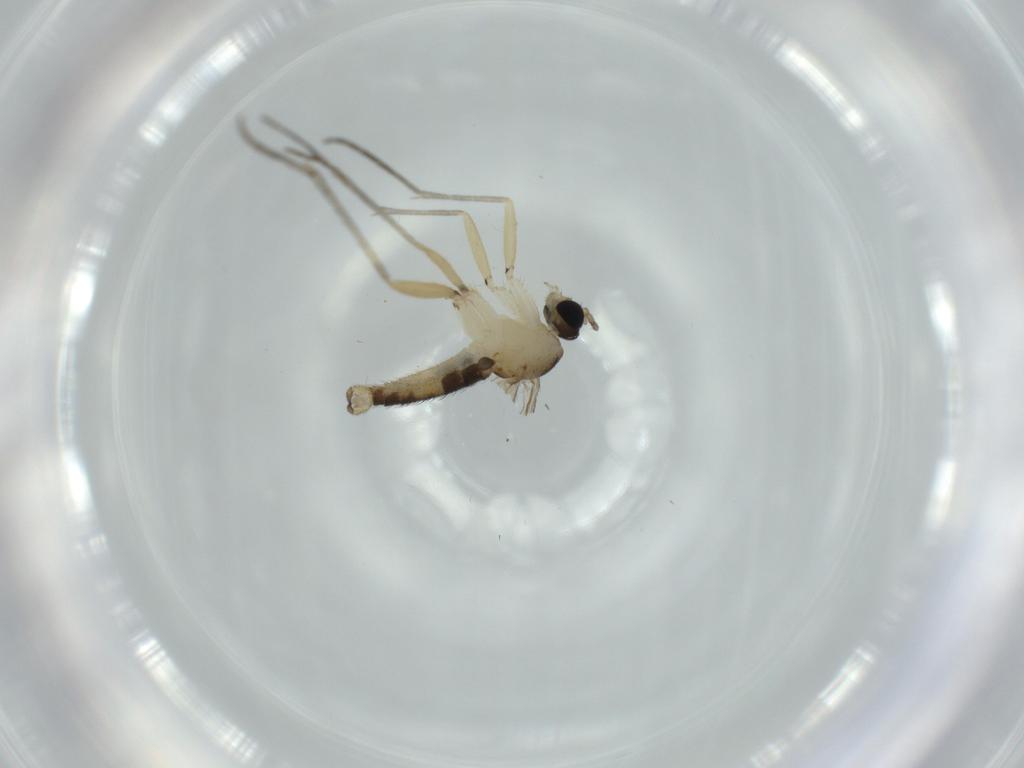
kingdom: Animalia
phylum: Arthropoda
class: Insecta
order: Diptera
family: Sciaridae
